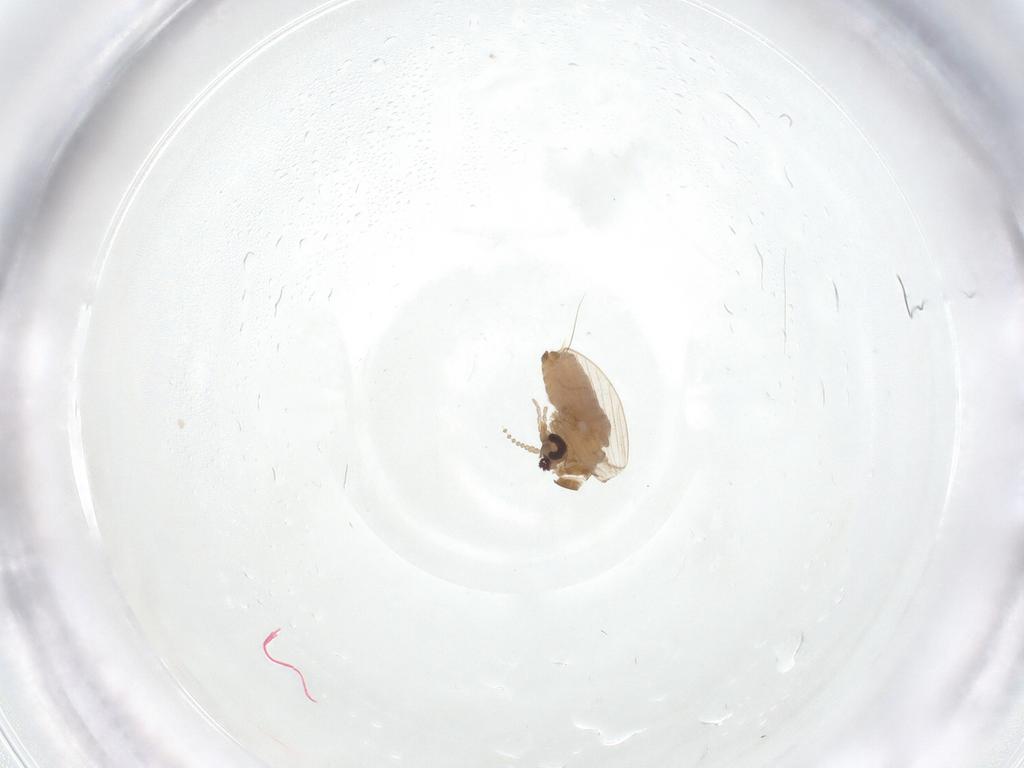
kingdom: Animalia
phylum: Arthropoda
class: Insecta
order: Diptera
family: Psychodidae
